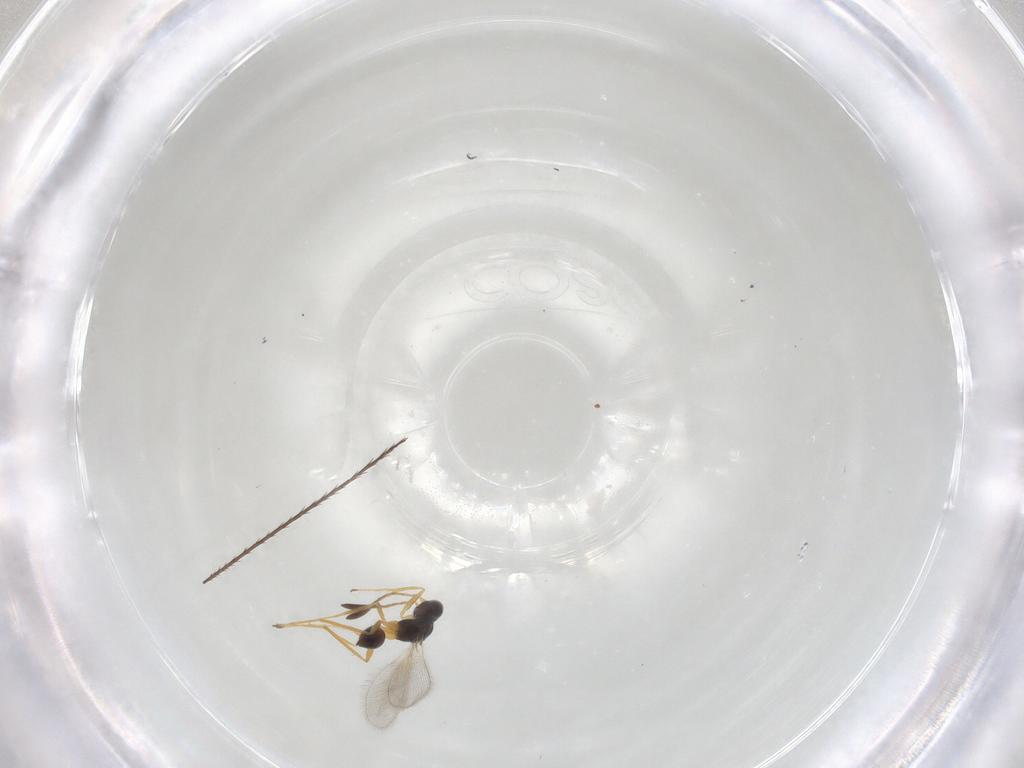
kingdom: Animalia
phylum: Arthropoda
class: Insecta
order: Hymenoptera
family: Mymaridae
